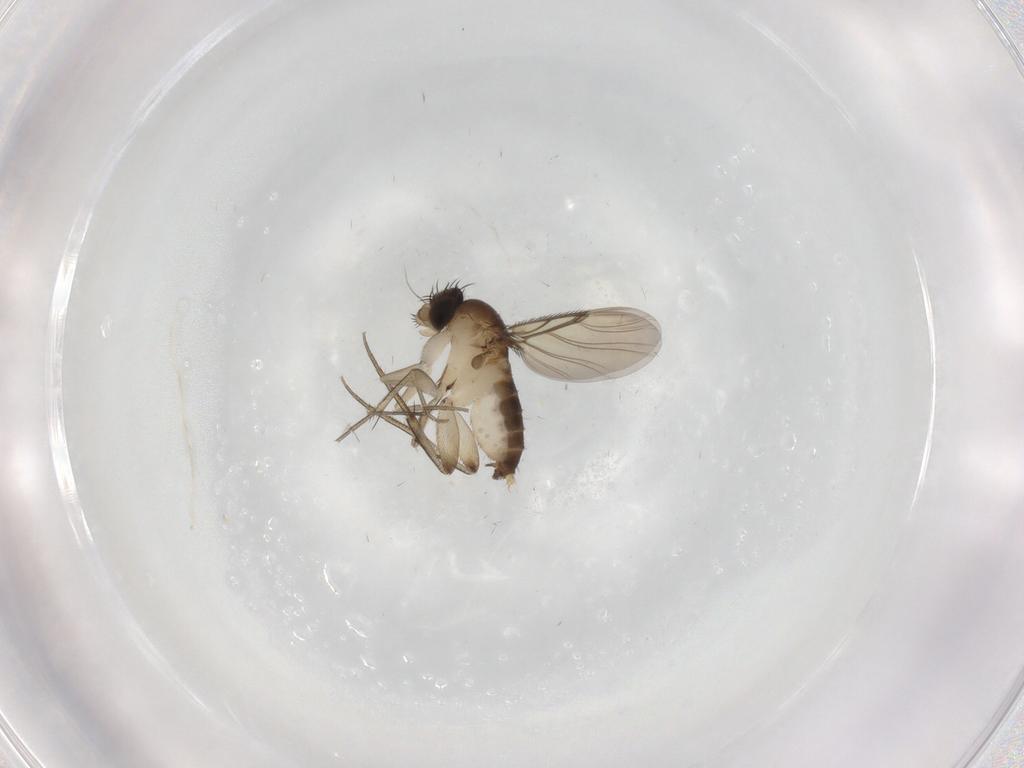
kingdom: Animalia
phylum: Arthropoda
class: Insecta
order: Diptera
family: Phoridae
